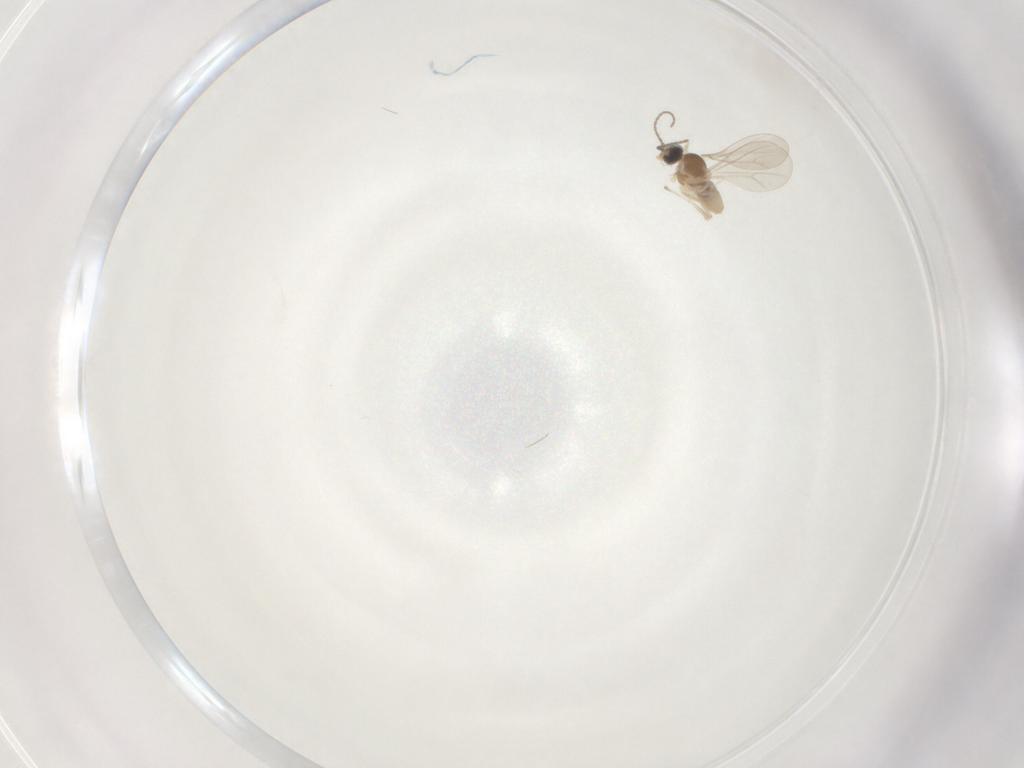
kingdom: Animalia
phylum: Arthropoda
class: Insecta
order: Diptera
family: Cecidomyiidae
